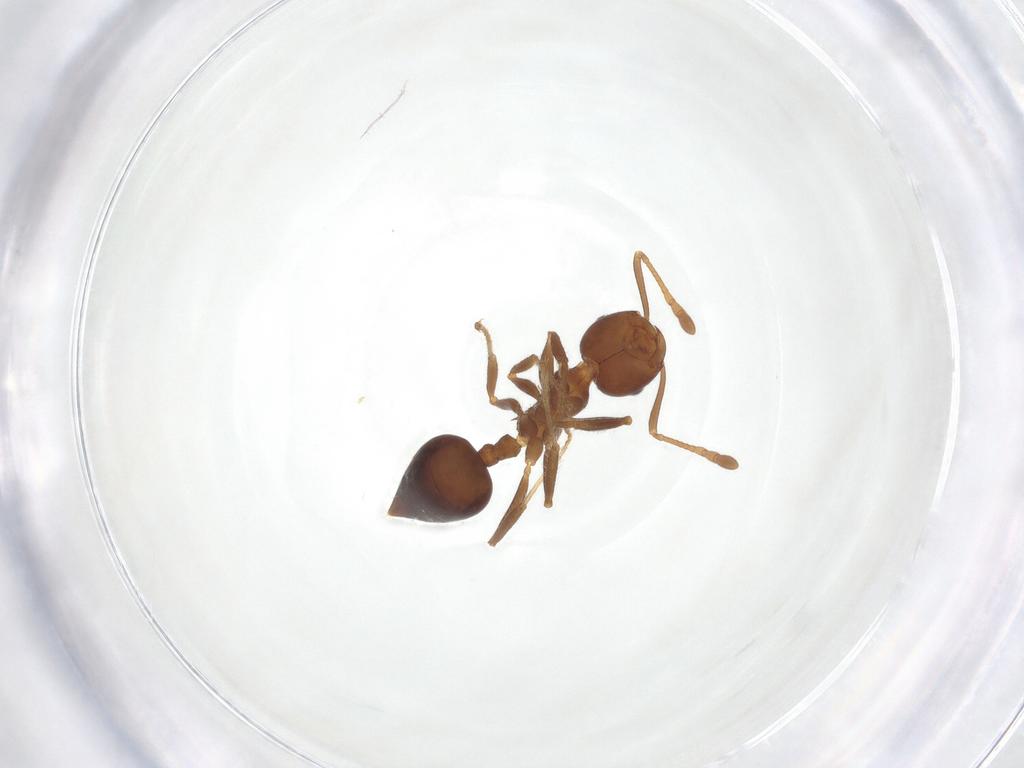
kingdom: Animalia
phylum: Arthropoda
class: Insecta
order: Hymenoptera
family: Formicidae
